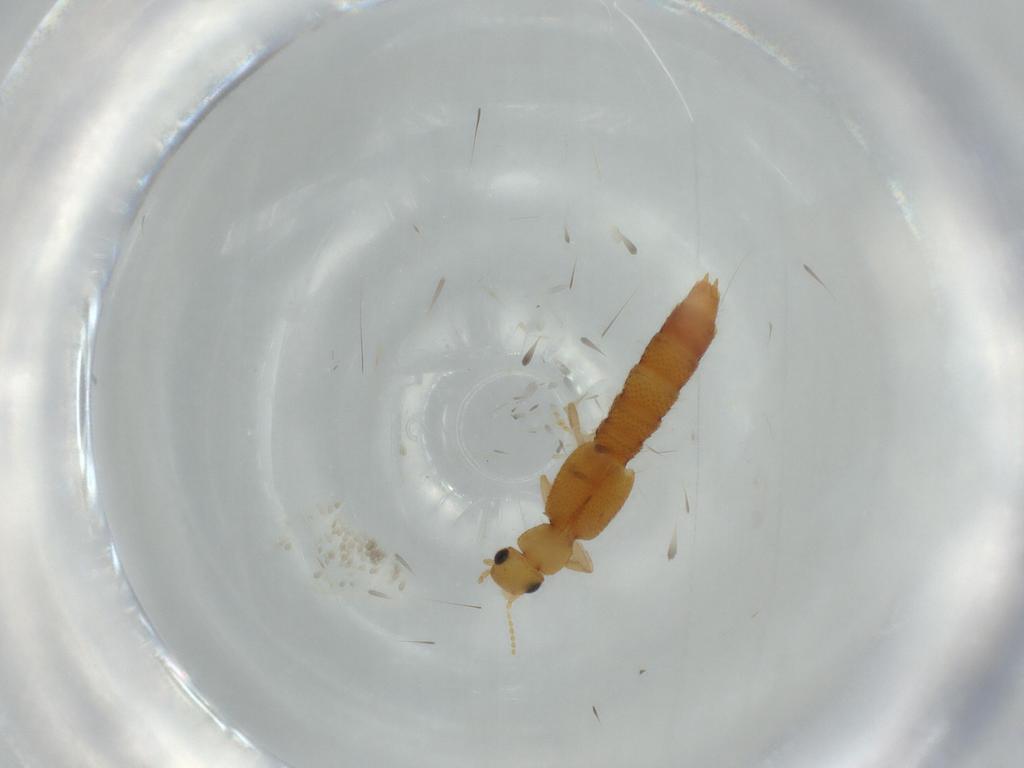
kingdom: Animalia
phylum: Arthropoda
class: Insecta
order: Coleoptera
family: Staphylinidae
